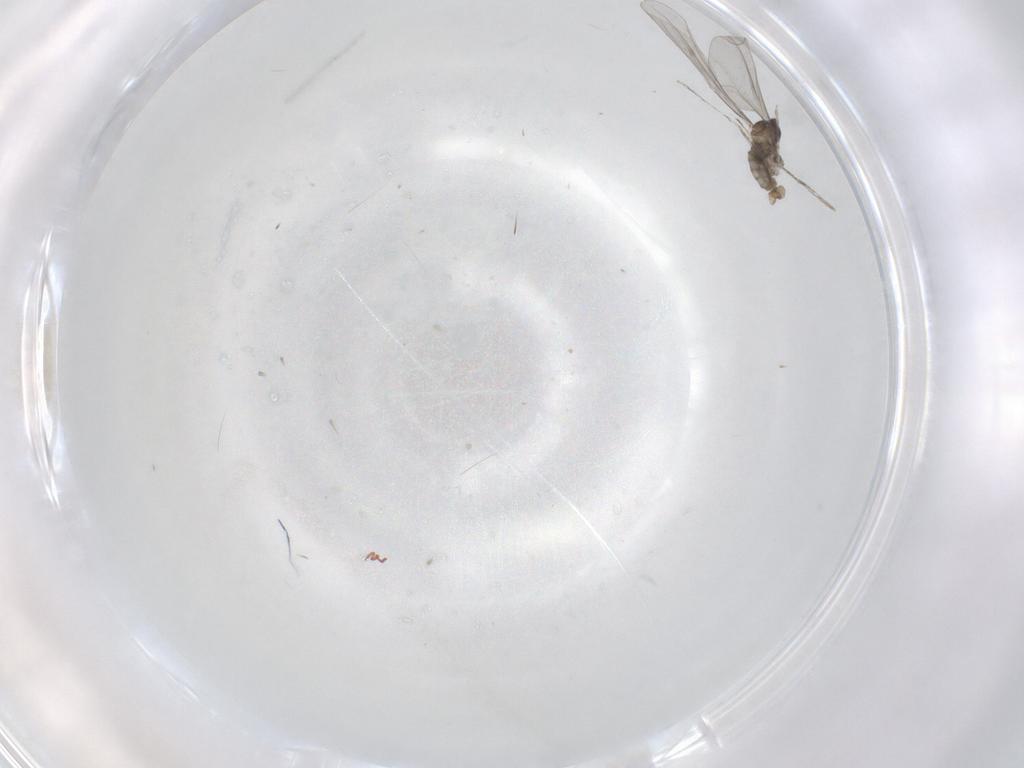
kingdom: Animalia
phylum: Arthropoda
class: Insecta
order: Diptera
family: Cecidomyiidae
